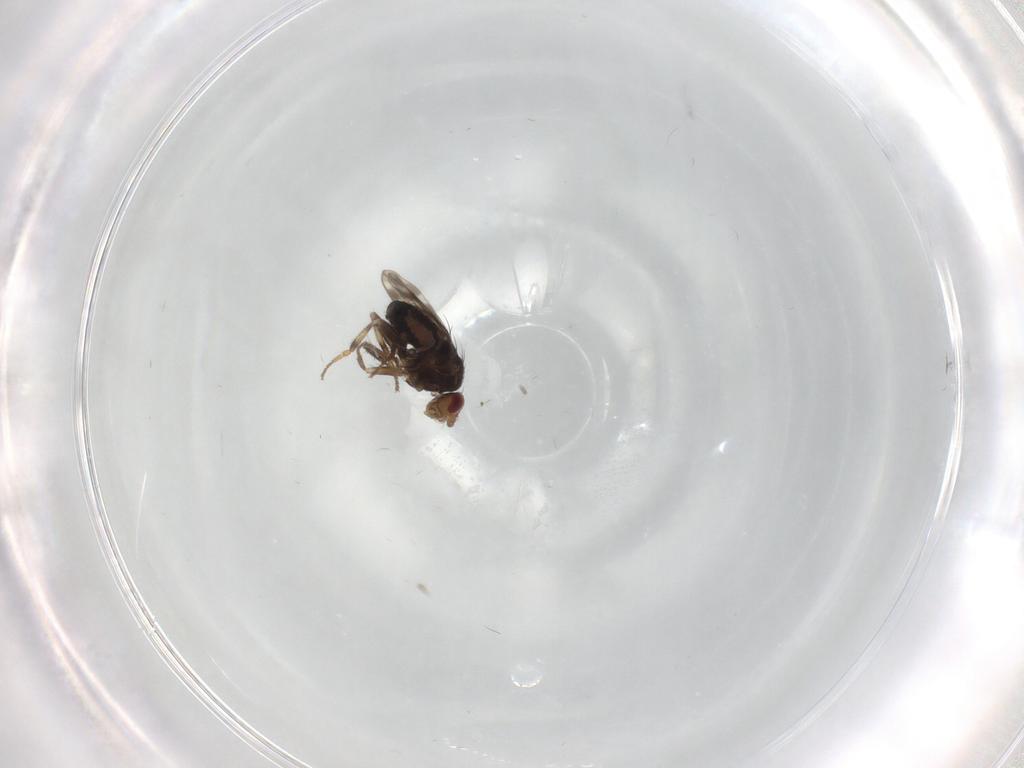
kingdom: Animalia
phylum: Arthropoda
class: Insecta
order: Diptera
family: Sphaeroceridae
